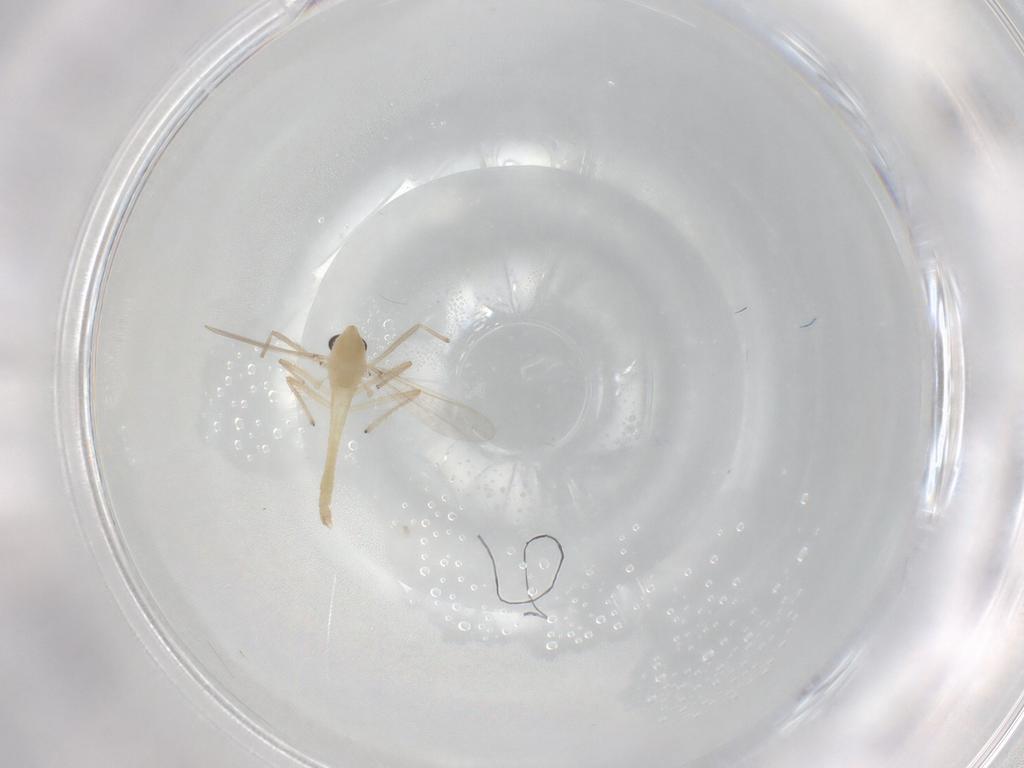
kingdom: Animalia
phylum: Arthropoda
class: Insecta
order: Diptera
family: Chironomidae
